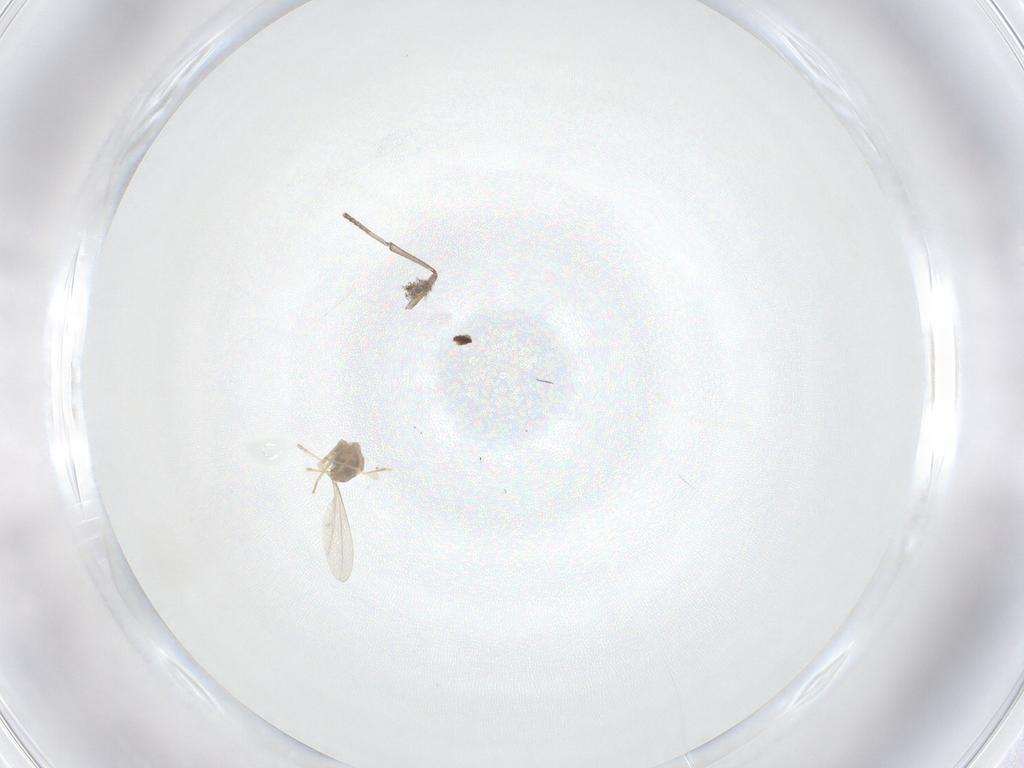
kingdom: Animalia
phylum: Arthropoda
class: Insecta
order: Diptera
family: Cecidomyiidae
